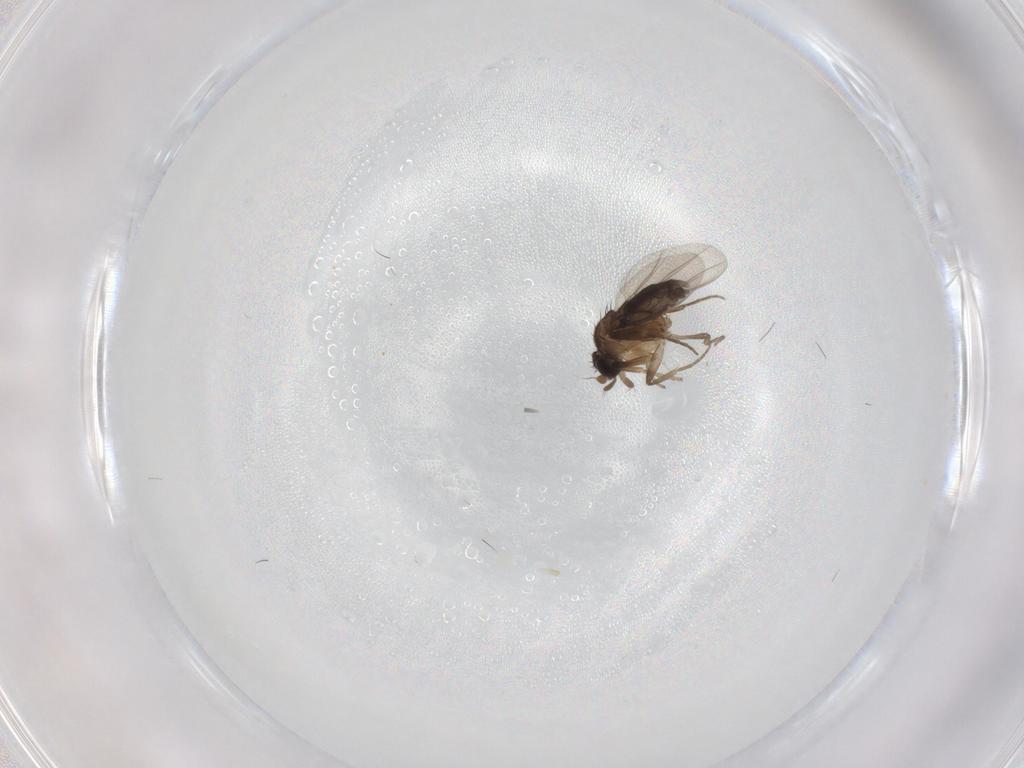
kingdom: Animalia
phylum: Arthropoda
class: Insecta
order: Diptera
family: Phoridae
